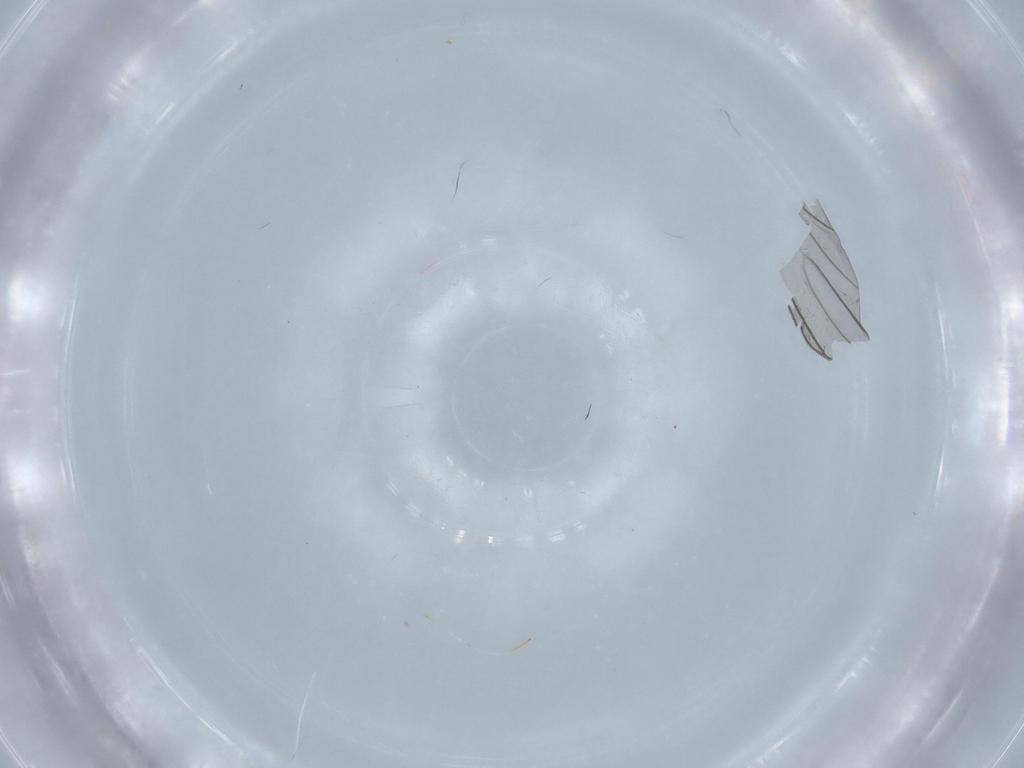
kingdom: Animalia
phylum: Arthropoda
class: Insecta
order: Diptera
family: Sciaridae
